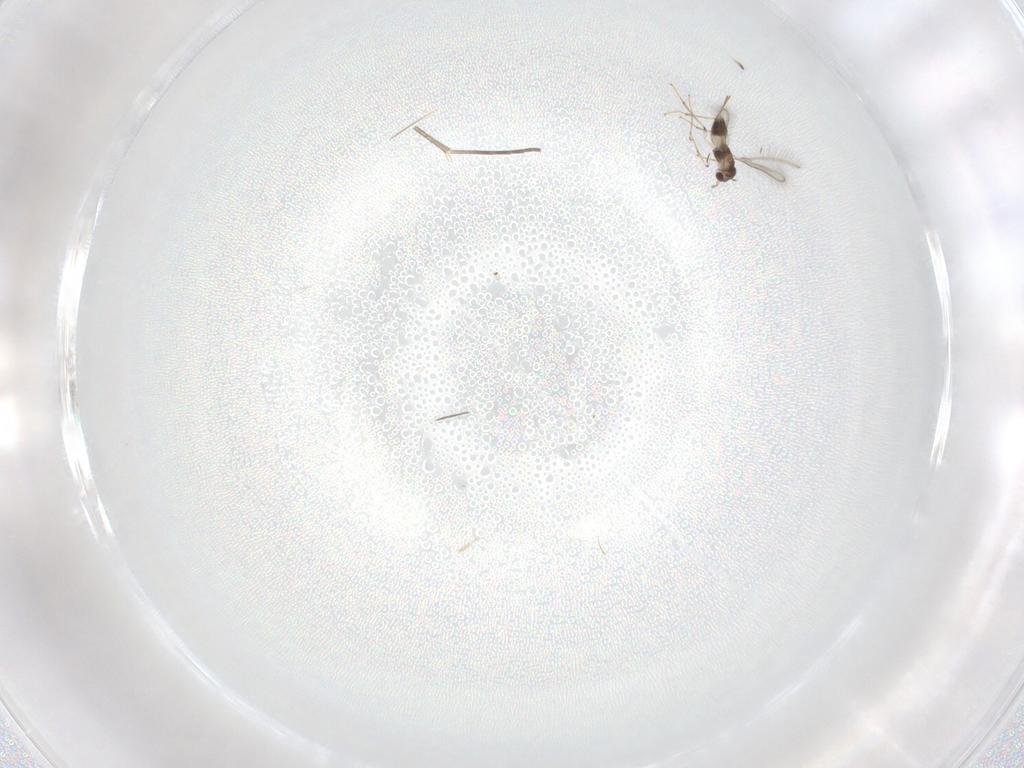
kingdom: Animalia
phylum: Arthropoda
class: Insecta
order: Hymenoptera
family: Mymaridae
